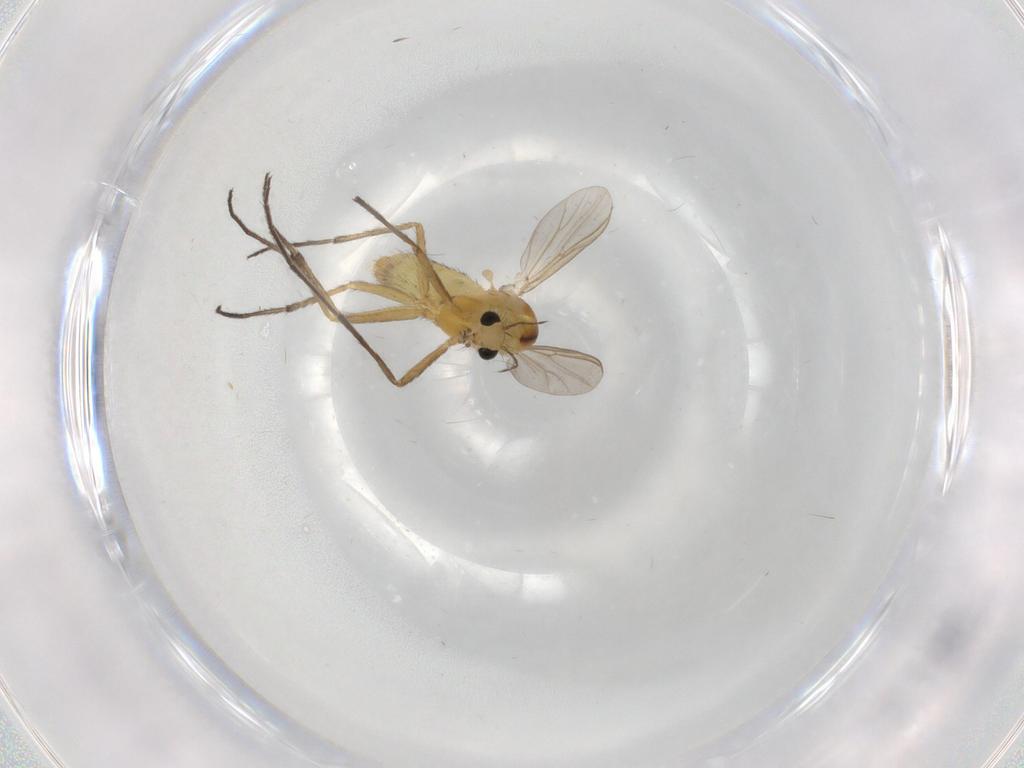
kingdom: Animalia
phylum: Arthropoda
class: Insecta
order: Diptera
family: Chironomidae
